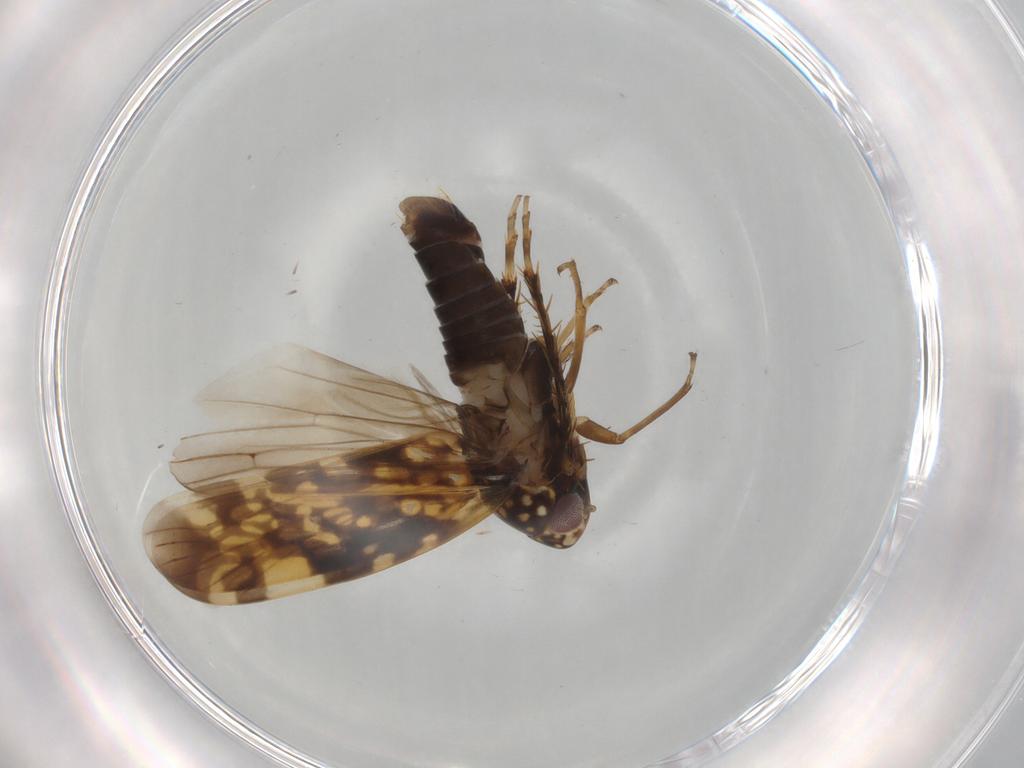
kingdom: Animalia
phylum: Arthropoda
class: Insecta
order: Hemiptera
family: Cicadellidae
